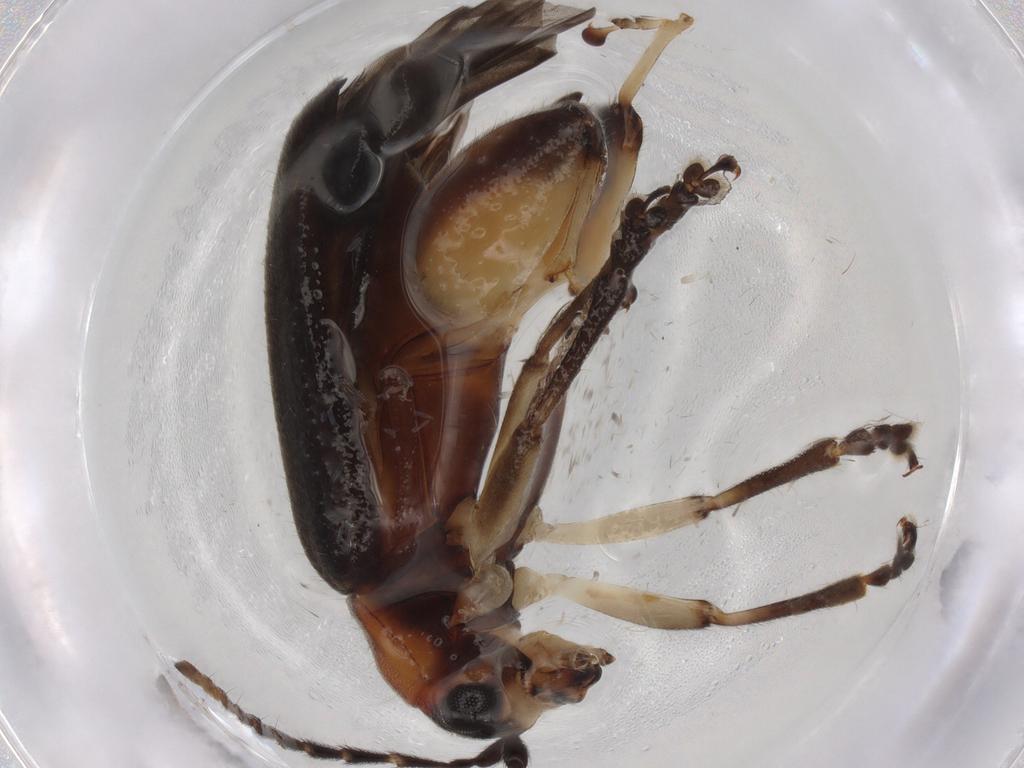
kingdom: Animalia
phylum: Arthropoda
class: Insecta
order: Coleoptera
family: Chrysomelidae
